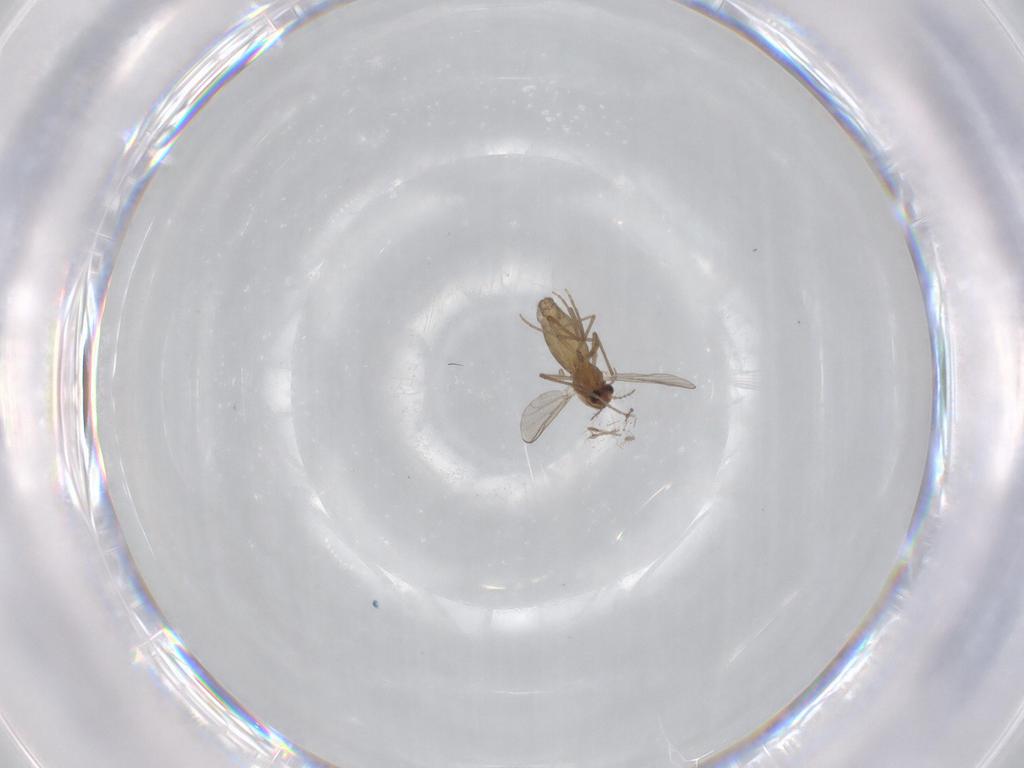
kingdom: Animalia
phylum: Arthropoda
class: Insecta
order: Diptera
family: Chironomidae
